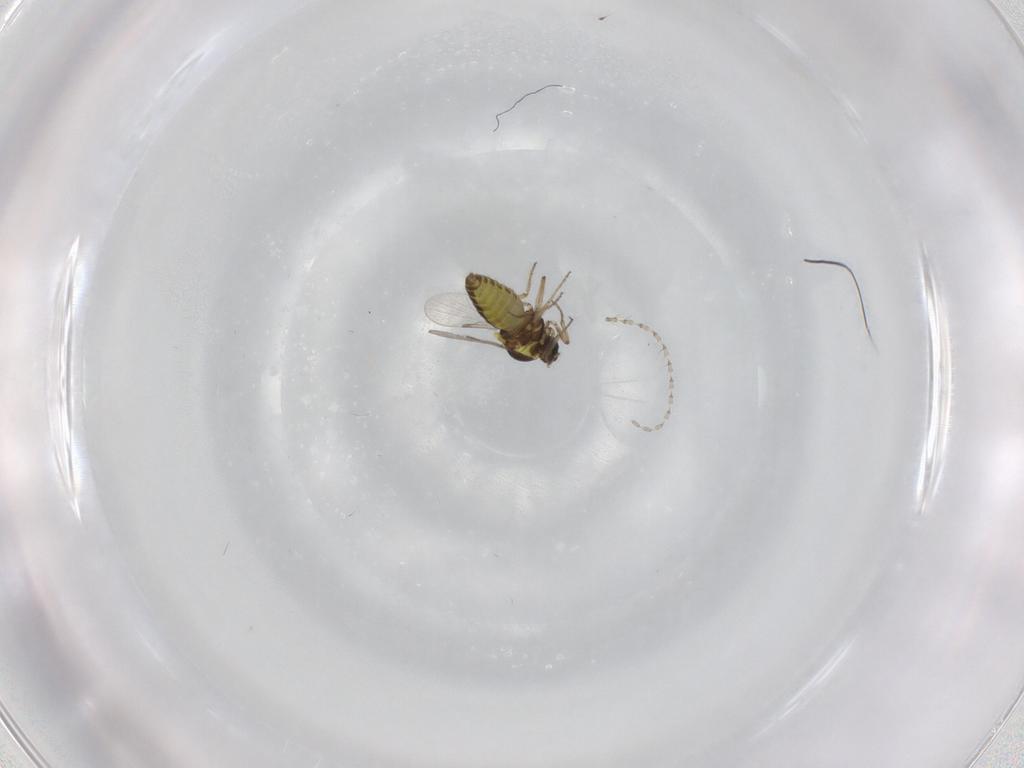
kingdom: Animalia
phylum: Arthropoda
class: Insecta
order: Diptera
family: Ceratopogonidae
